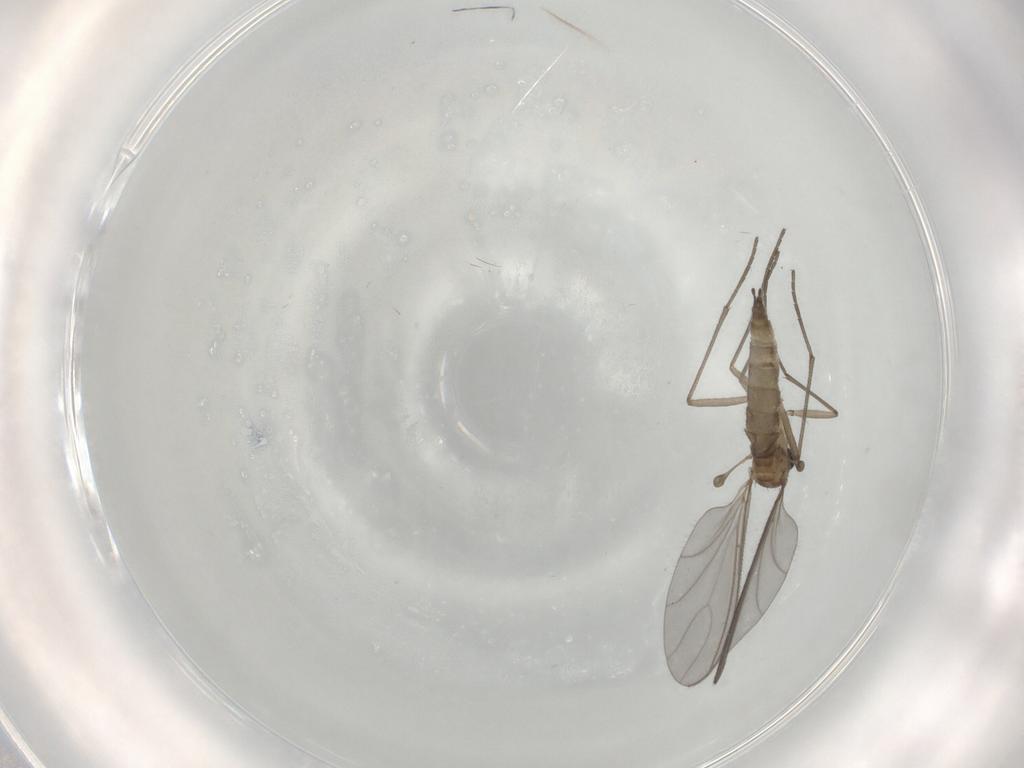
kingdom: Animalia
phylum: Arthropoda
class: Insecta
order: Diptera
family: Sciaridae
